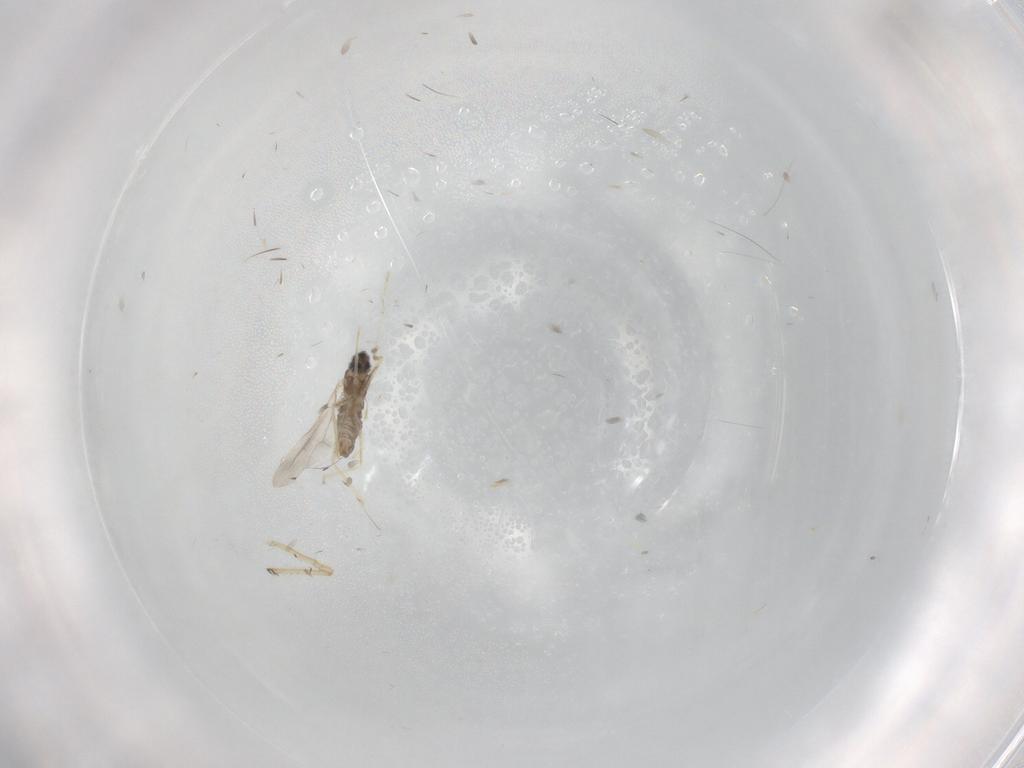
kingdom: Animalia
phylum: Arthropoda
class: Insecta
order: Diptera
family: Cecidomyiidae
